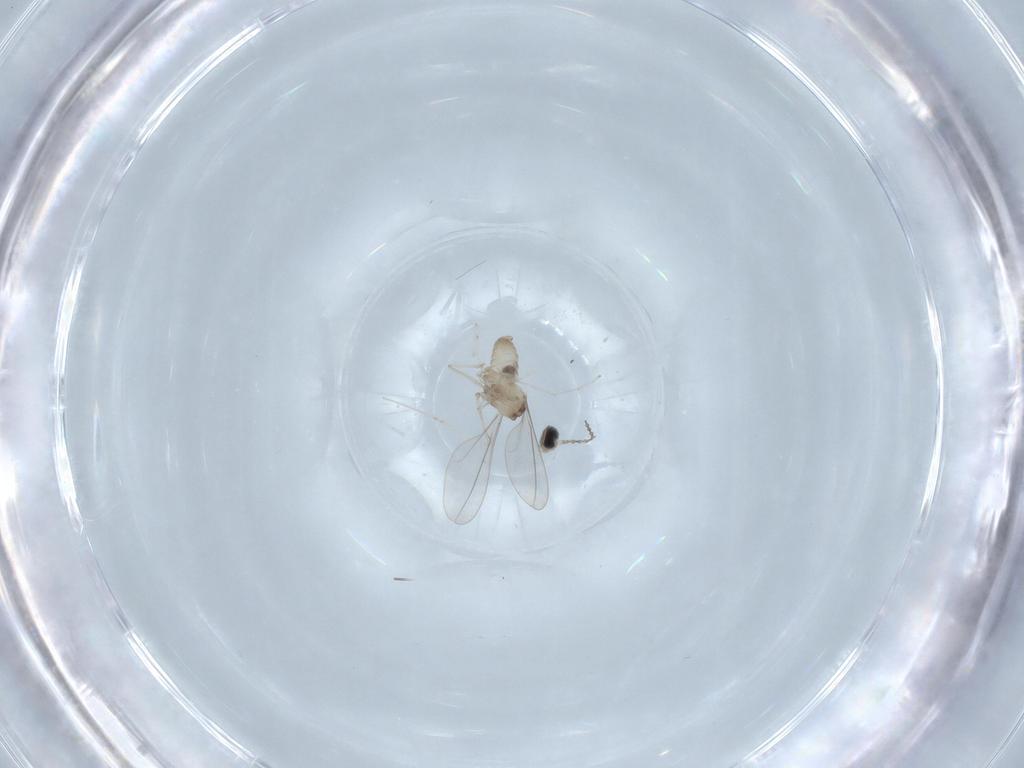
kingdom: Animalia
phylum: Arthropoda
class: Insecta
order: Diptera
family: Cecidomyiidae
